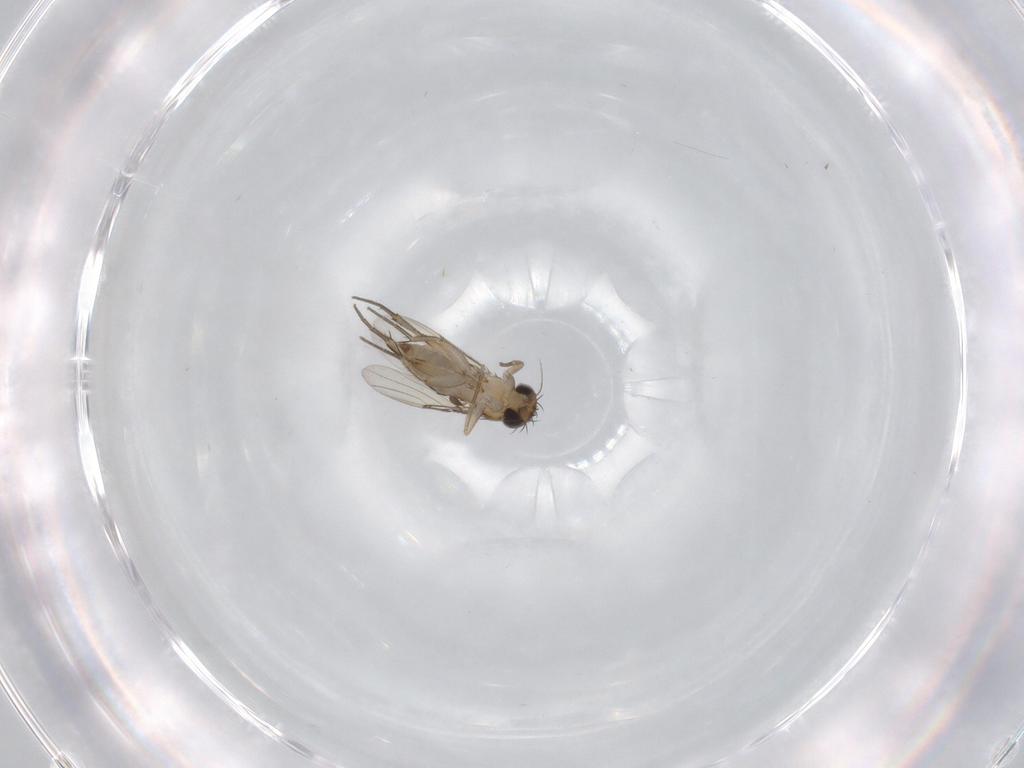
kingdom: Animalia
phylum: Arthropoda
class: Insecta
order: Diptera
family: Phoridae
